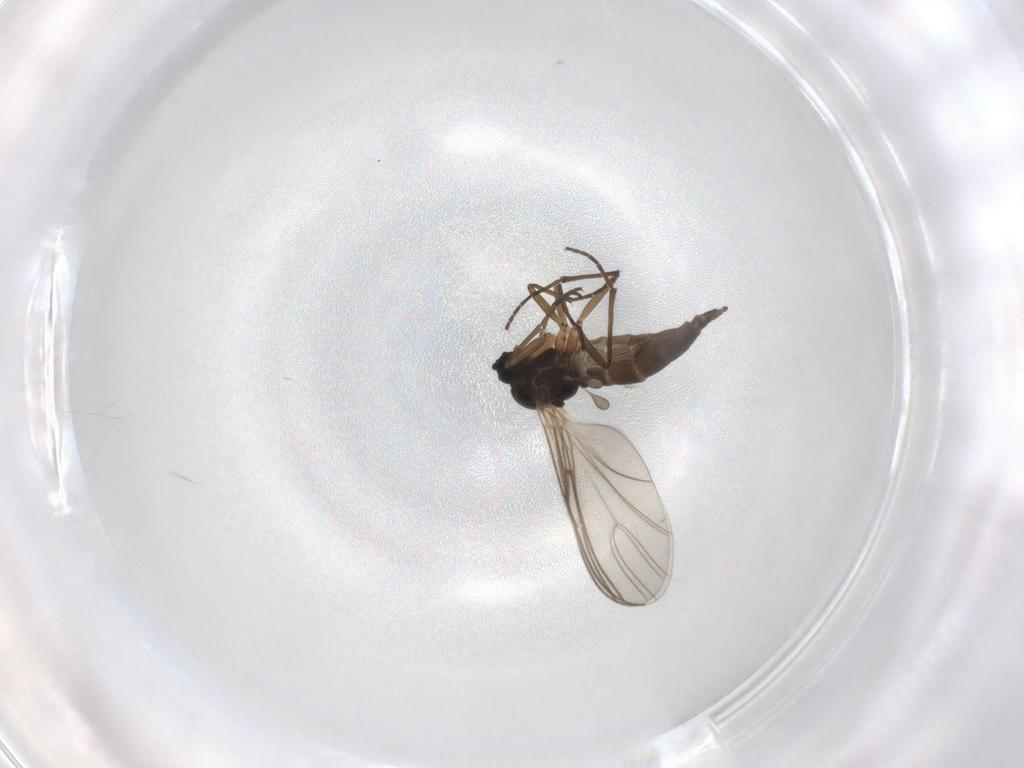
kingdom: Animalia
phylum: Arthropoda
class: Insecta
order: Diptera
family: Sciaridae
